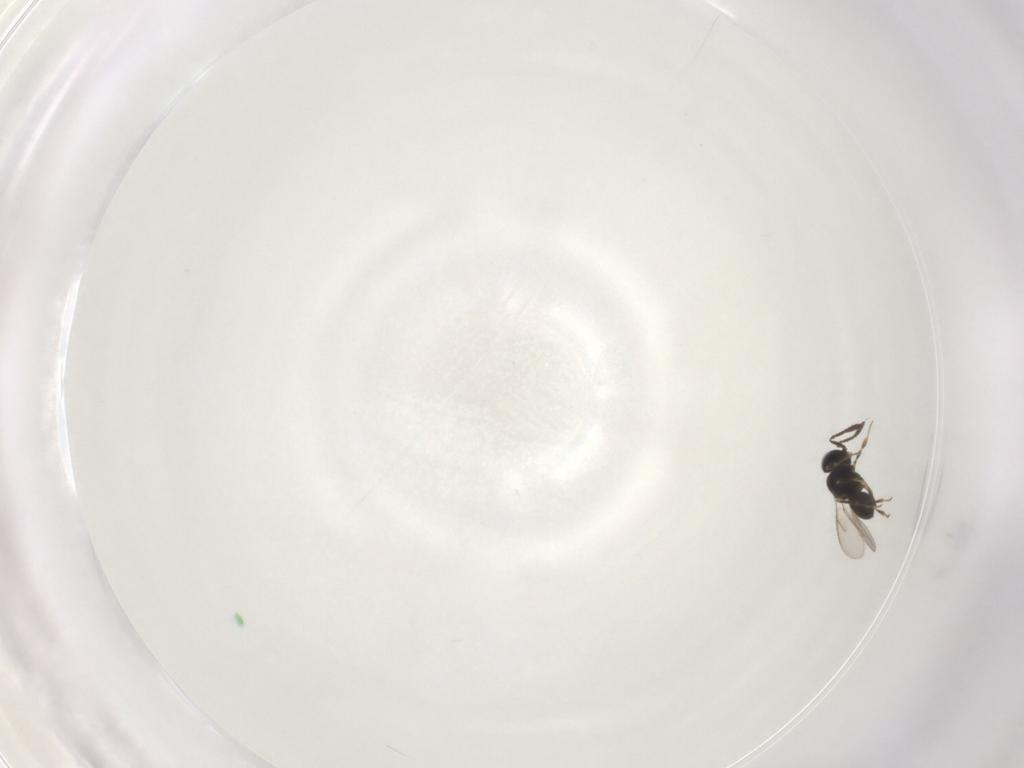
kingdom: Animalia
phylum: Arthropoda
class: Insecta
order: Hymenoptera
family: Scelionidae
